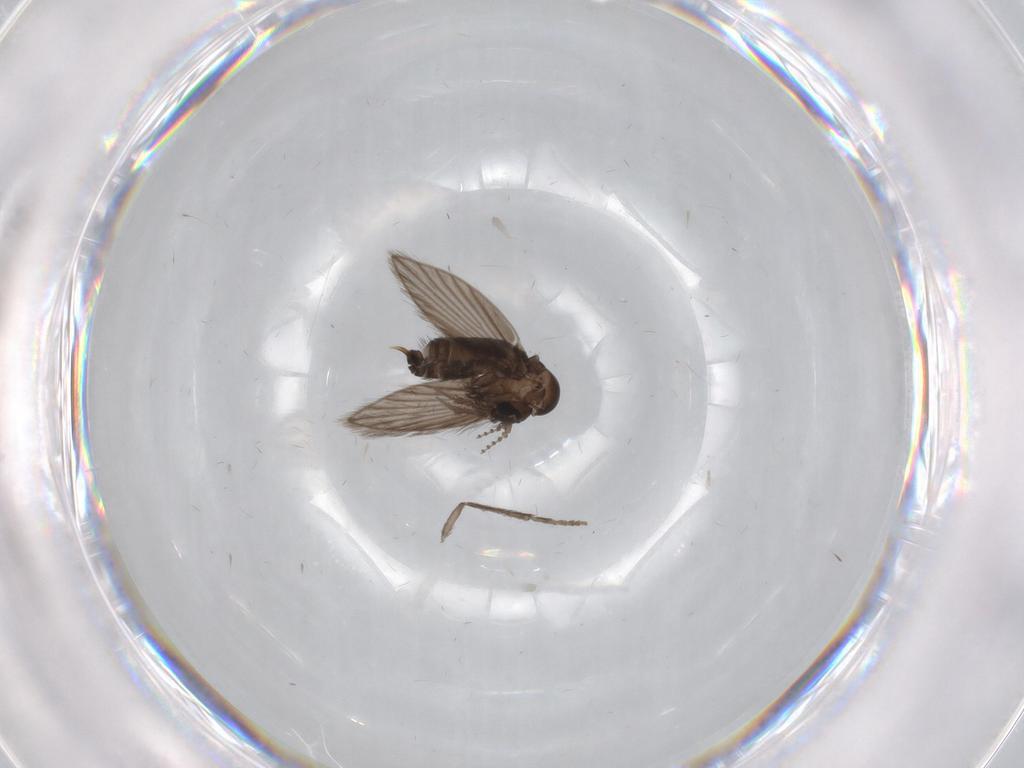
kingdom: Animalia
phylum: Arthropoda
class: Insecta
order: Diptera
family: Psychodidae
